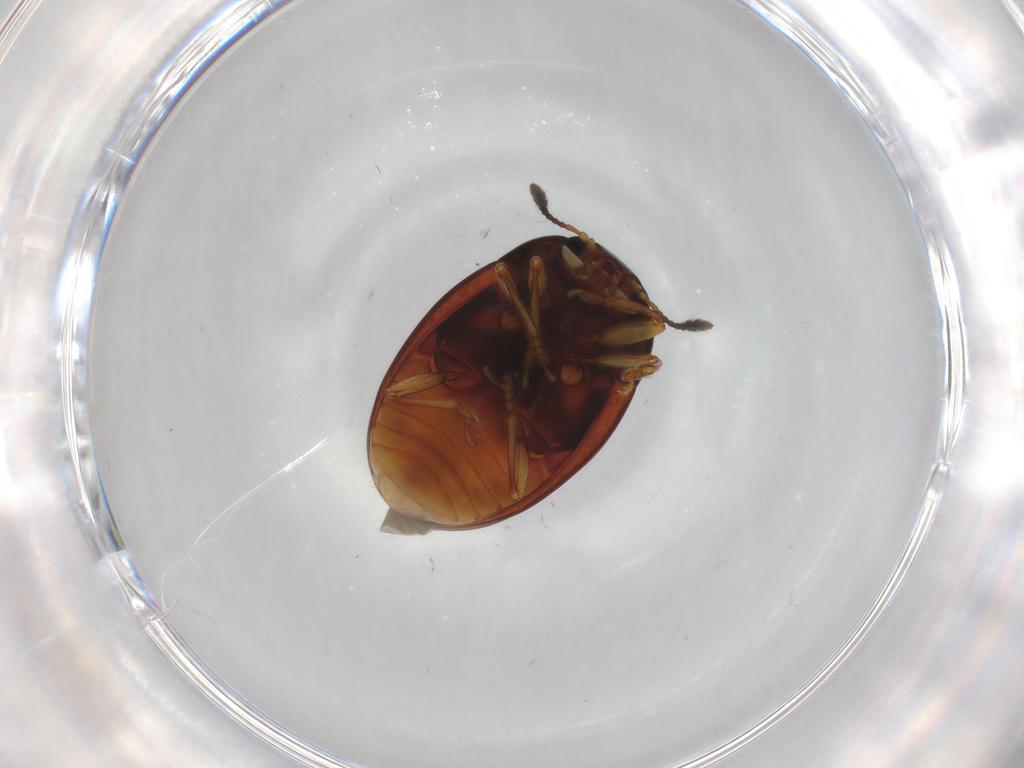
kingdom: Animalia
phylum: Arthropoda
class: Insecta
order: Coleoptera
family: Erotylidae
